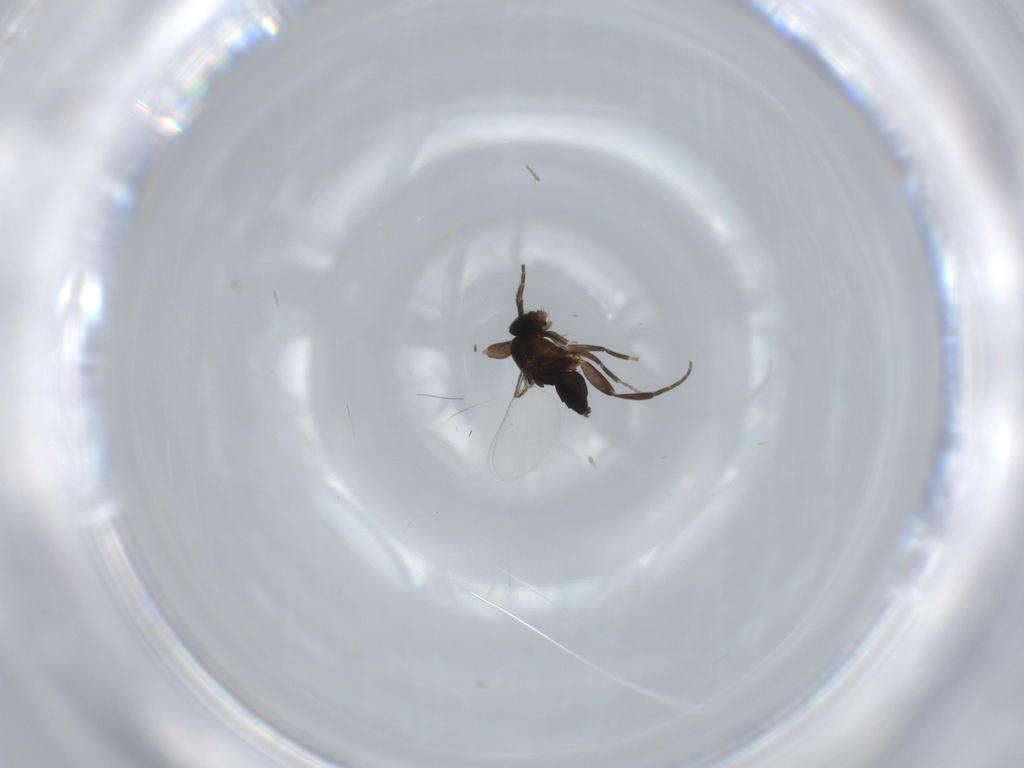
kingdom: Animalia
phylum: Arthropoda
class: Insecta
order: Diptera
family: Phoridae
